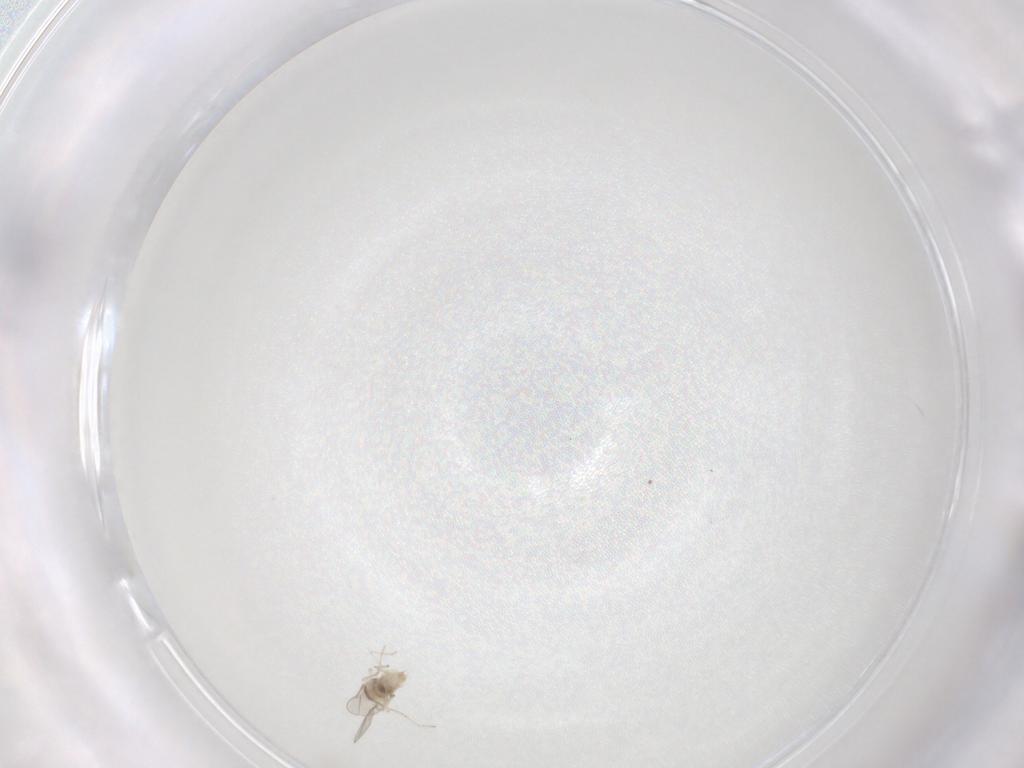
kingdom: Animalia
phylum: Arthropoda
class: Insecta
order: Diptera
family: Cecidomyiidae
